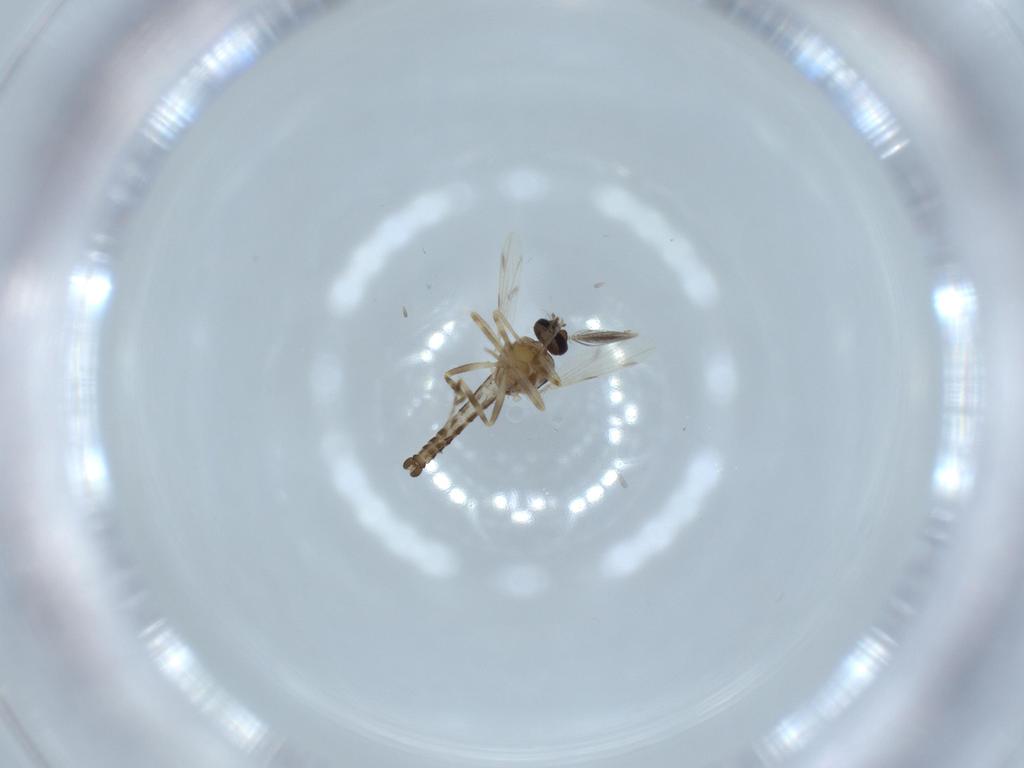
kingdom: Animalia
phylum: Arthropoda
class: Insecta
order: Diptera
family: Ceratopogonidae
